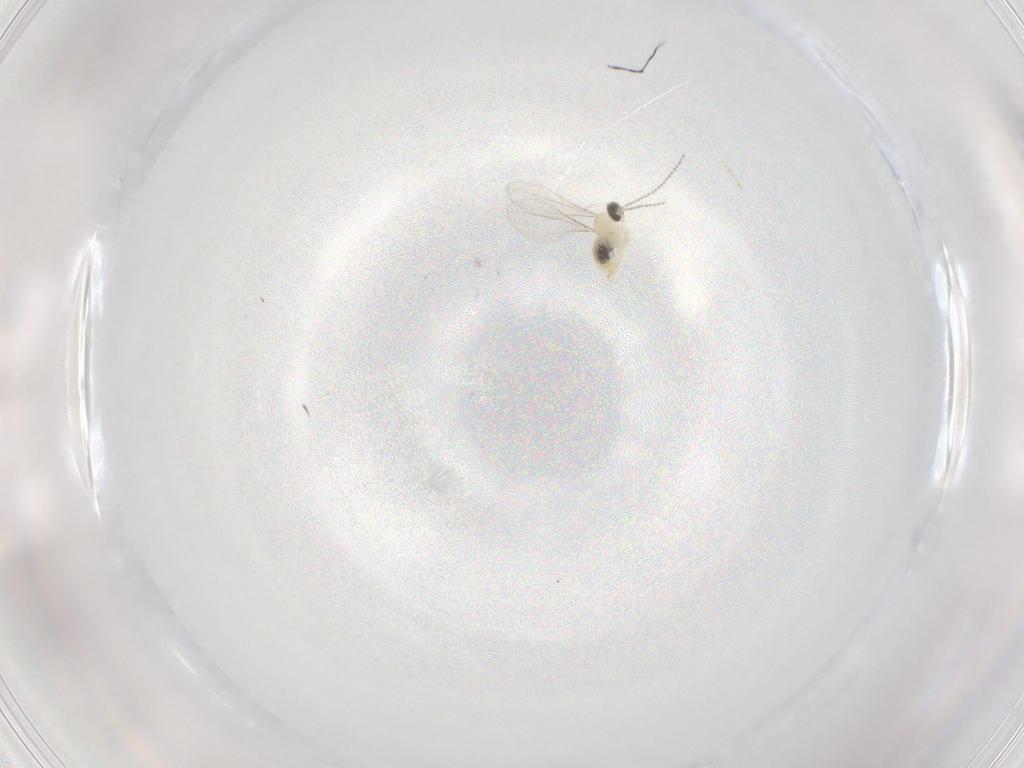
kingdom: Animalia
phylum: Arthropoda
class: Insecta
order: Diptera
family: Cecidomyiidae
